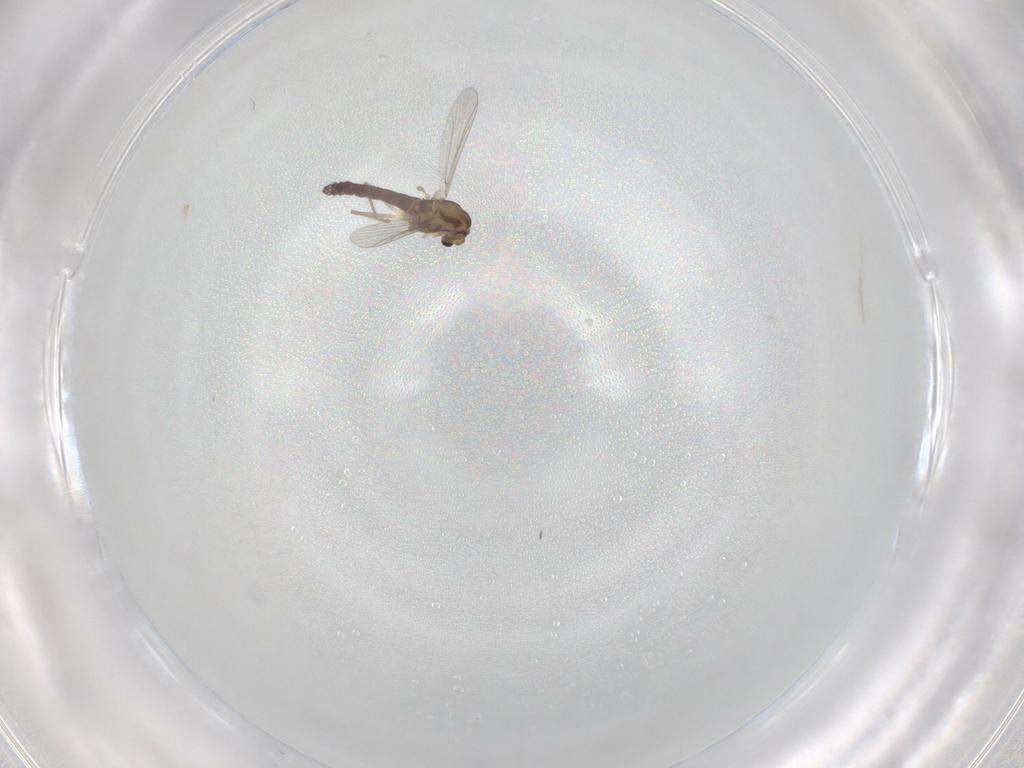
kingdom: Animalia
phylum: Arthropoda
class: Insecta
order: Diptera
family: Chironomidae
